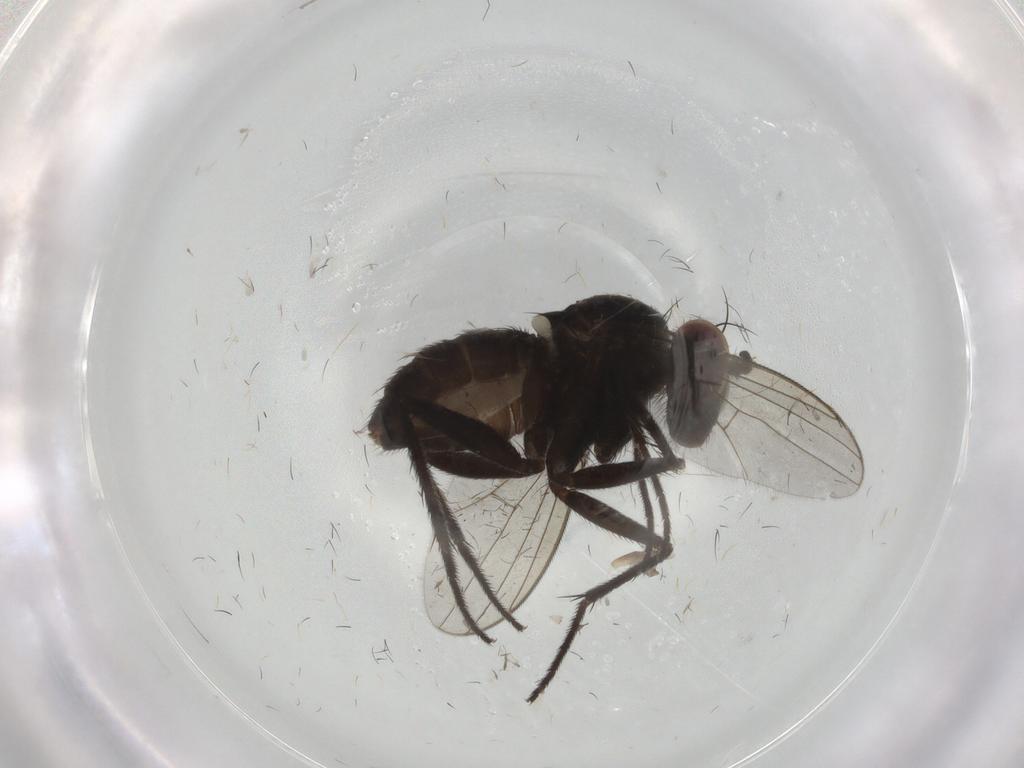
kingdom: Animalia
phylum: Arthropoda
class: Insecta
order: Diptera
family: Dolichopodidae
